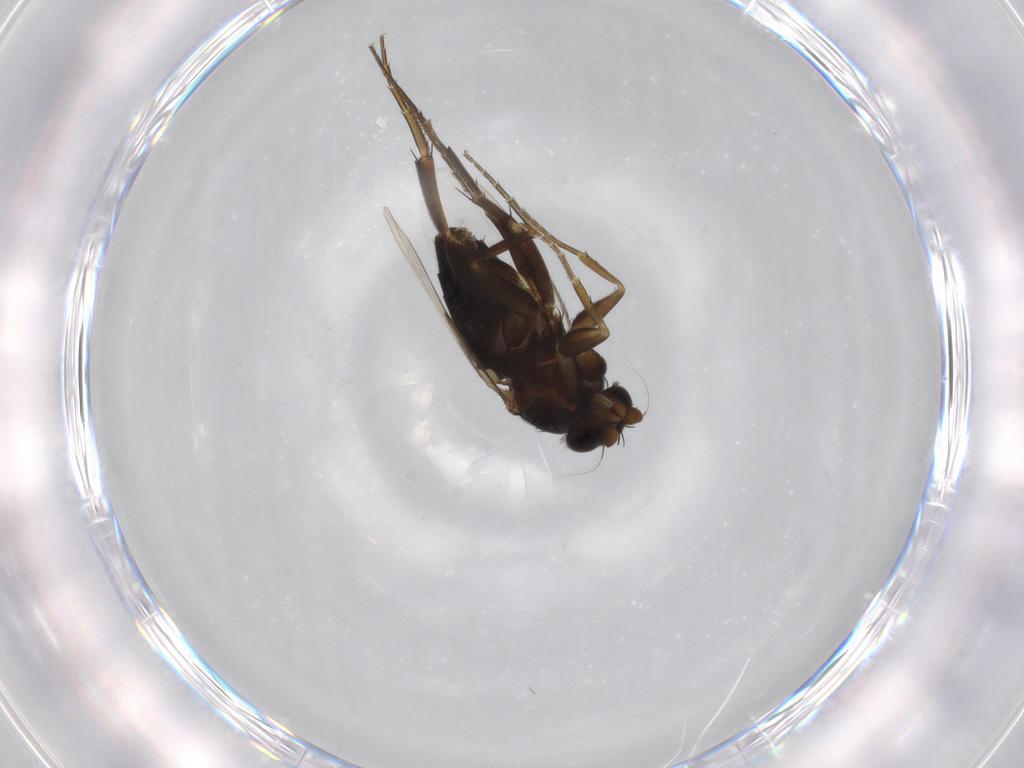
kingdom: Animalia
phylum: Arthropoda
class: Insecta
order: Diptera
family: Phoridae
